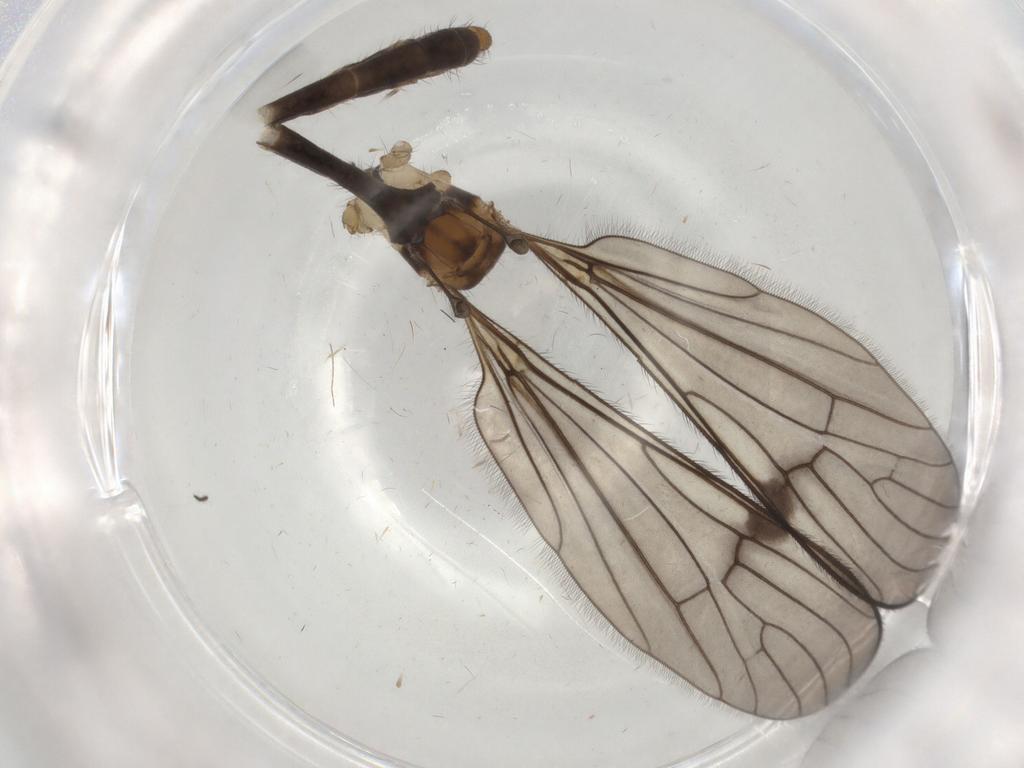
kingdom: Animalia
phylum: Arthropoda
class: Insecta
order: Diptera
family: Limoniidae
